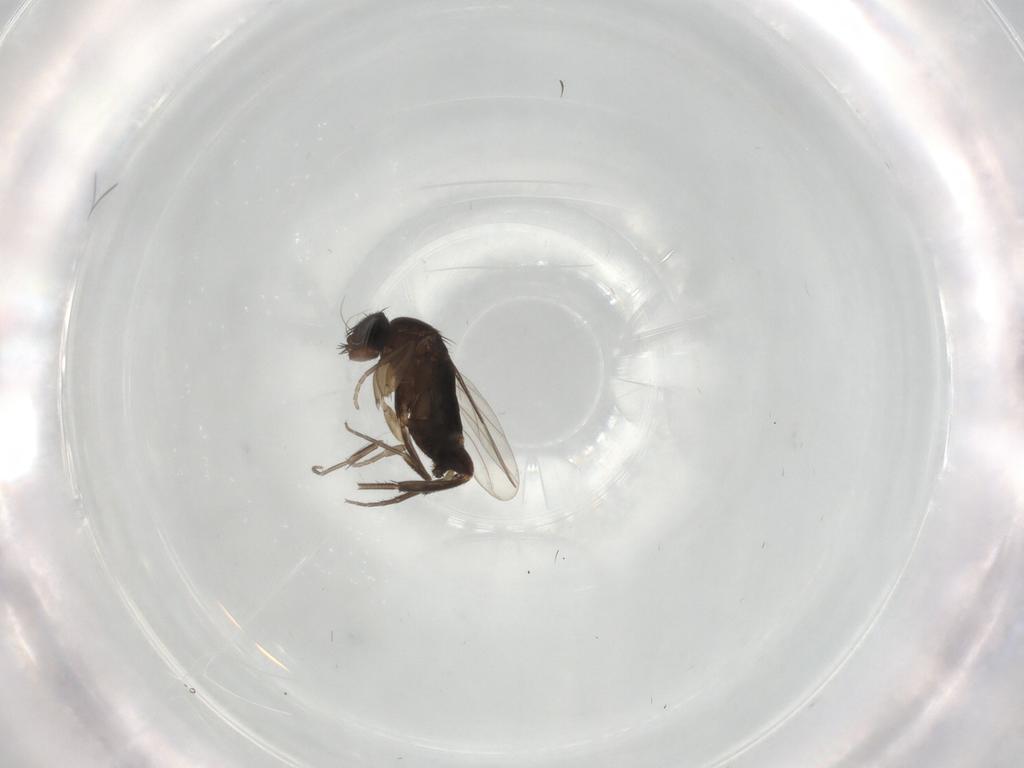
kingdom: Animalia
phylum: Arthropoda
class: Insecta
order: Diptera
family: Phoridae
